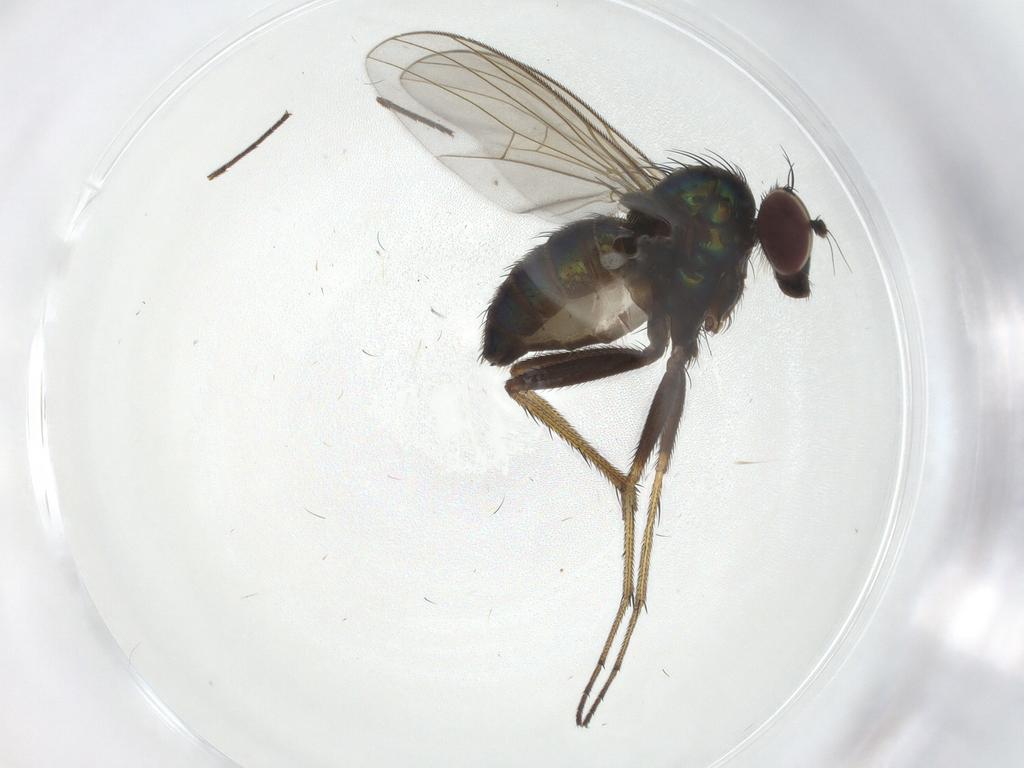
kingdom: Animalia
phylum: Arthropoda
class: Insecta
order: Diptera
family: Dolichopodidae
